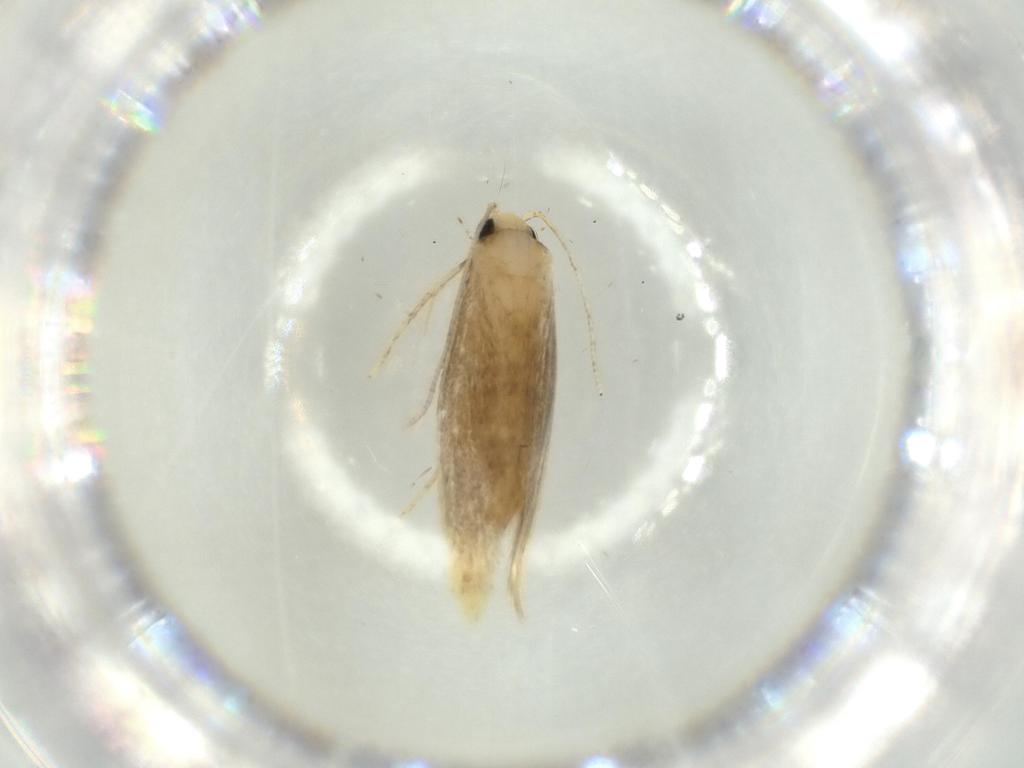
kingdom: Animalia
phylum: Arthropoda
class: Insecta
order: Lepidoptera
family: Tineidae
